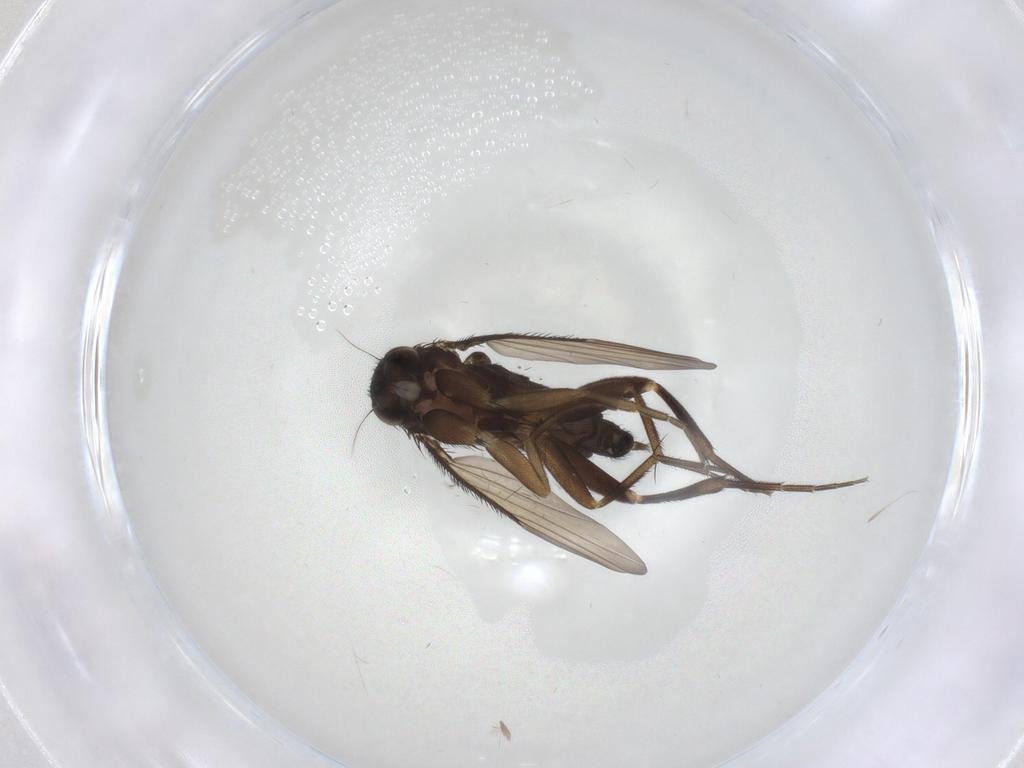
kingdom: Animalia
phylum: Arthropoda
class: Insecta
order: Diptera
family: Phoridae
